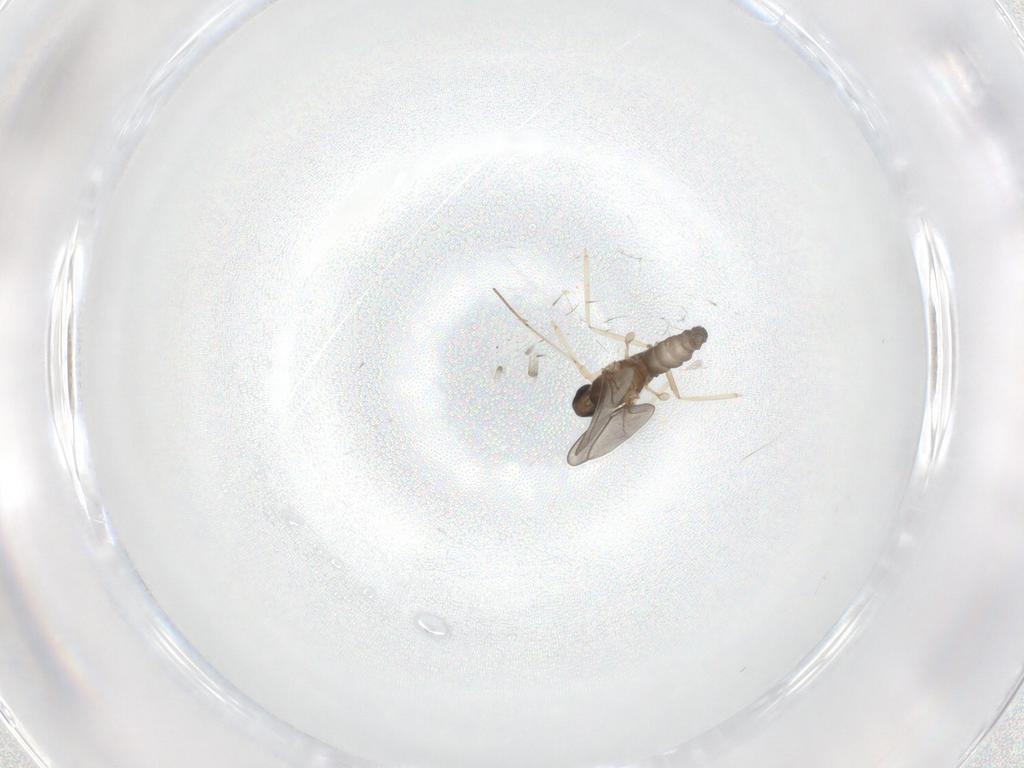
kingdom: Animalia
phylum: Arthropoda
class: Insecta
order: Diptera
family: Cecidomyiidae
